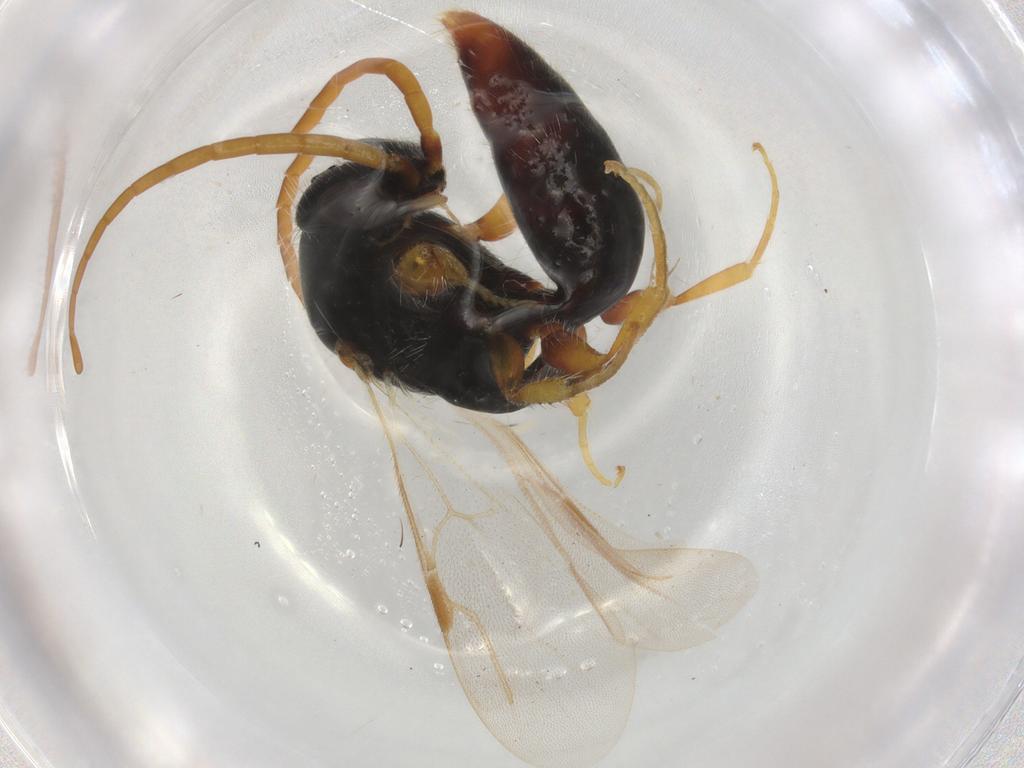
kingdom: Animalia
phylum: Arthropoda
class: Insecta
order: Hymenoptera
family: Bethylidae
